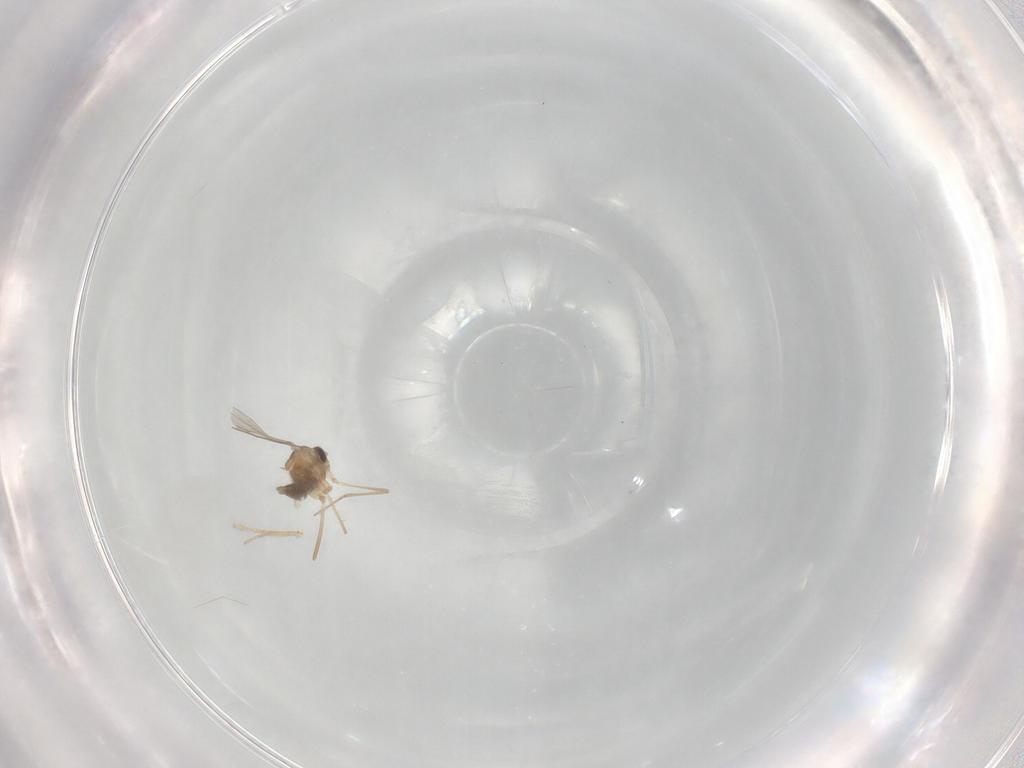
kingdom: Animalia
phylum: Arthropoda
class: Insecta
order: Diptera
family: Cecidomyiidae
